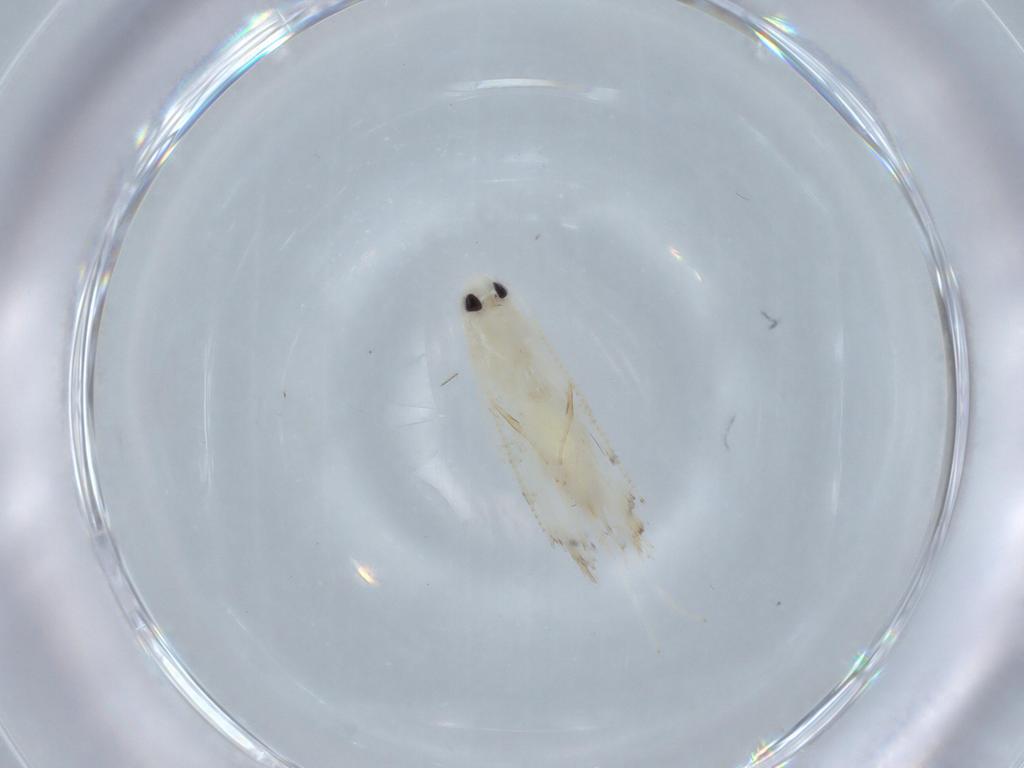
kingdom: Animalia
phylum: Arthropoda
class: Insecta
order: Lepidoptera
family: Gracillariidae
